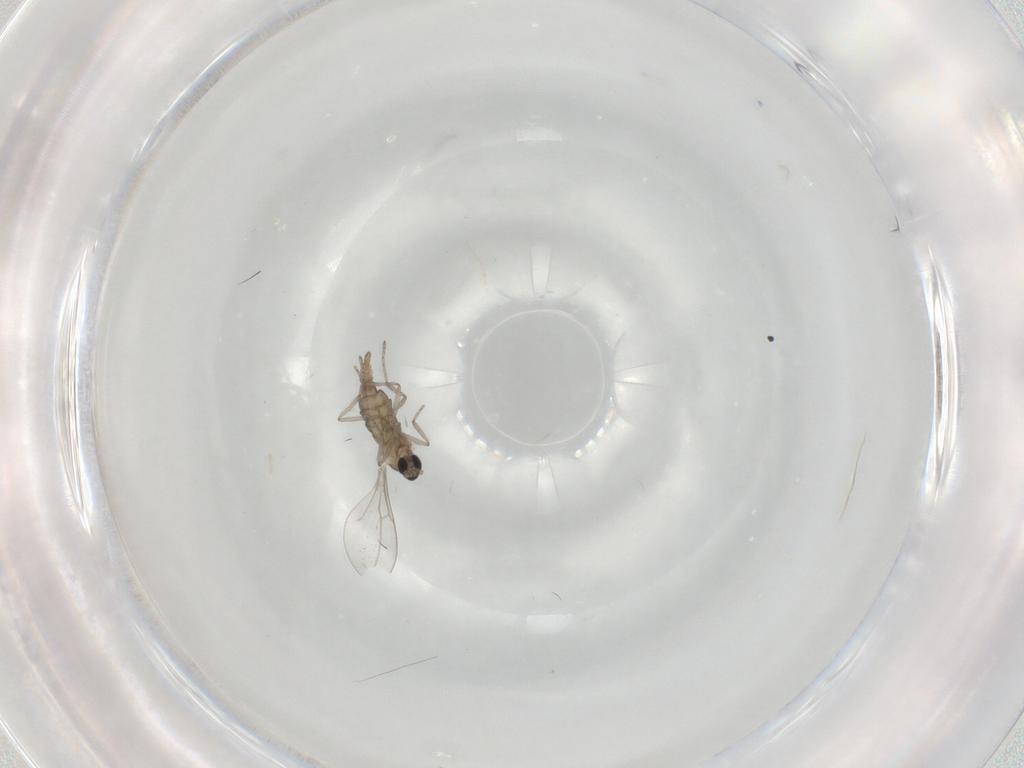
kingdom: Animalia
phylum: Arthropoda
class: Insecta
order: Diptera
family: Cecidomyiidae
